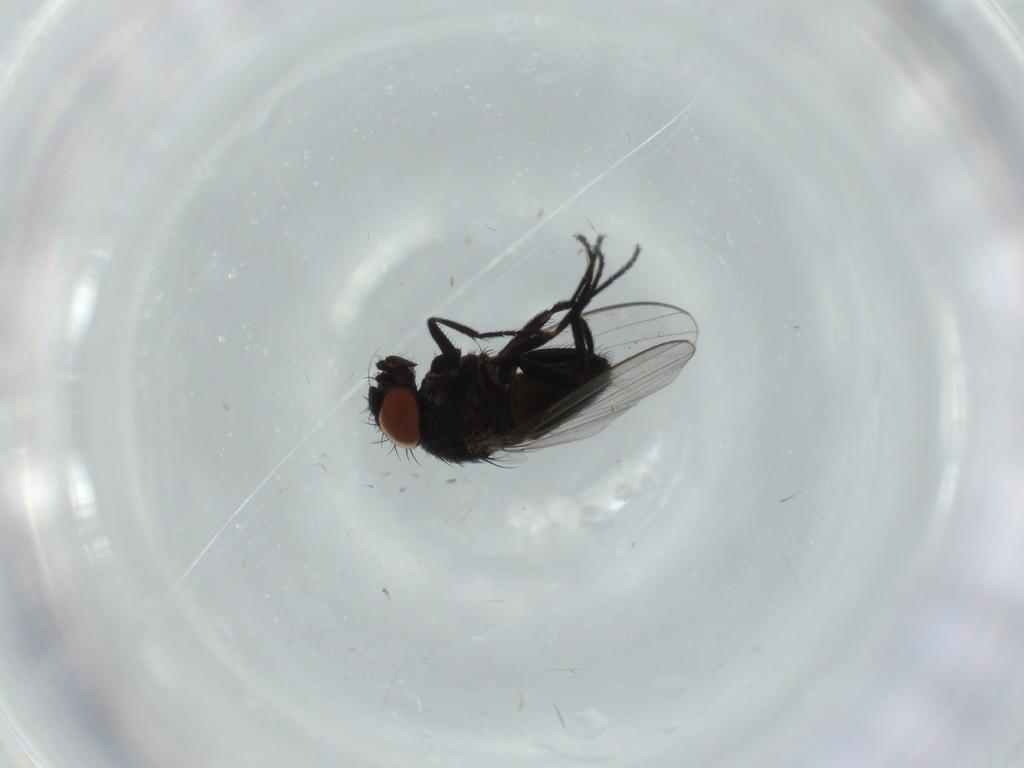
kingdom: Animalia
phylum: Arthropoda
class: Insecta
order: Diptera
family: Milichiidae
